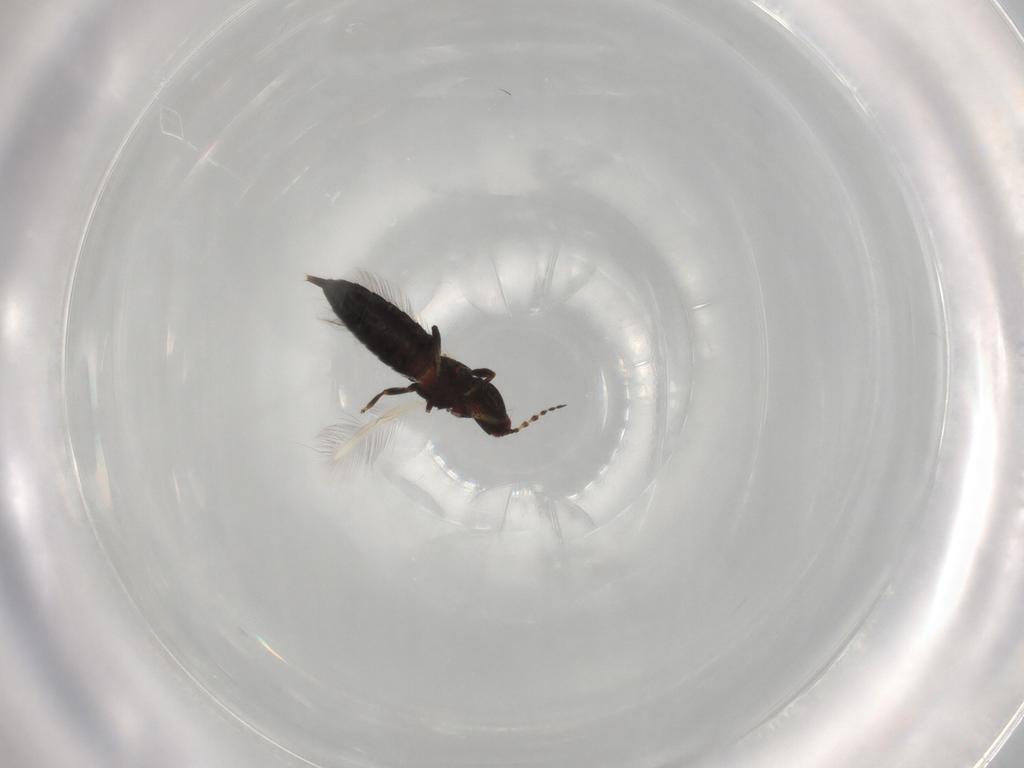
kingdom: Animalia
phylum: Arthropoda
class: Insecta
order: Thysanoptera
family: Phlaeothripidae
